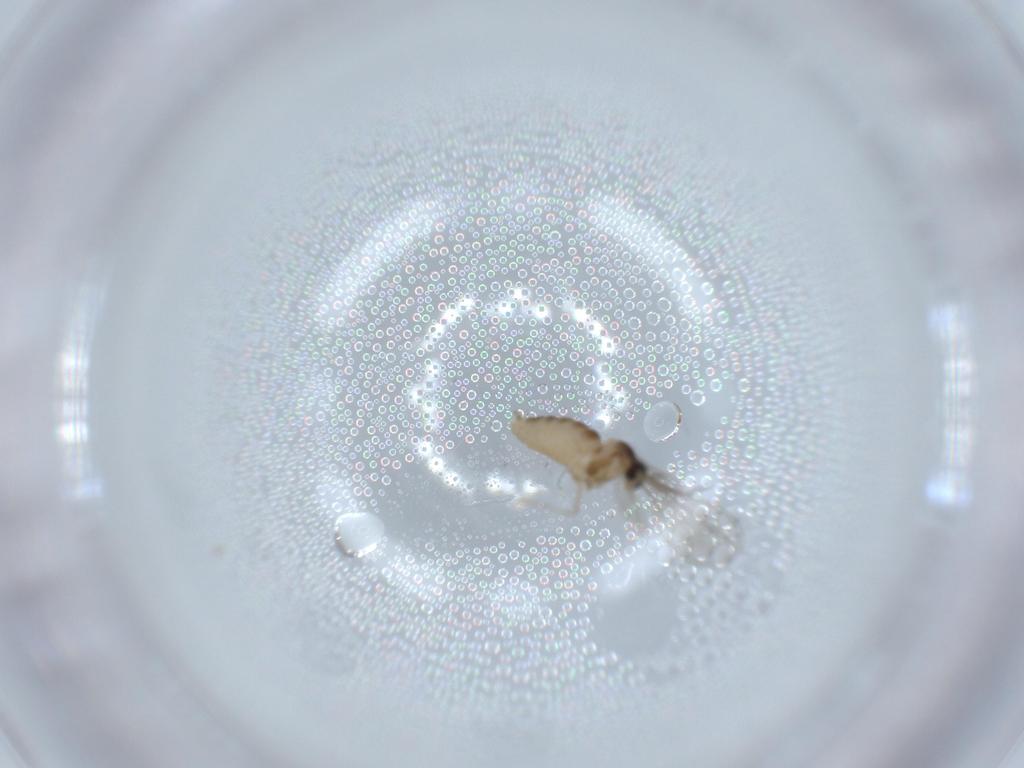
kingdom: Animalia
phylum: Arthropoda
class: Insecta
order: Diptera
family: Cecidomyiidae
